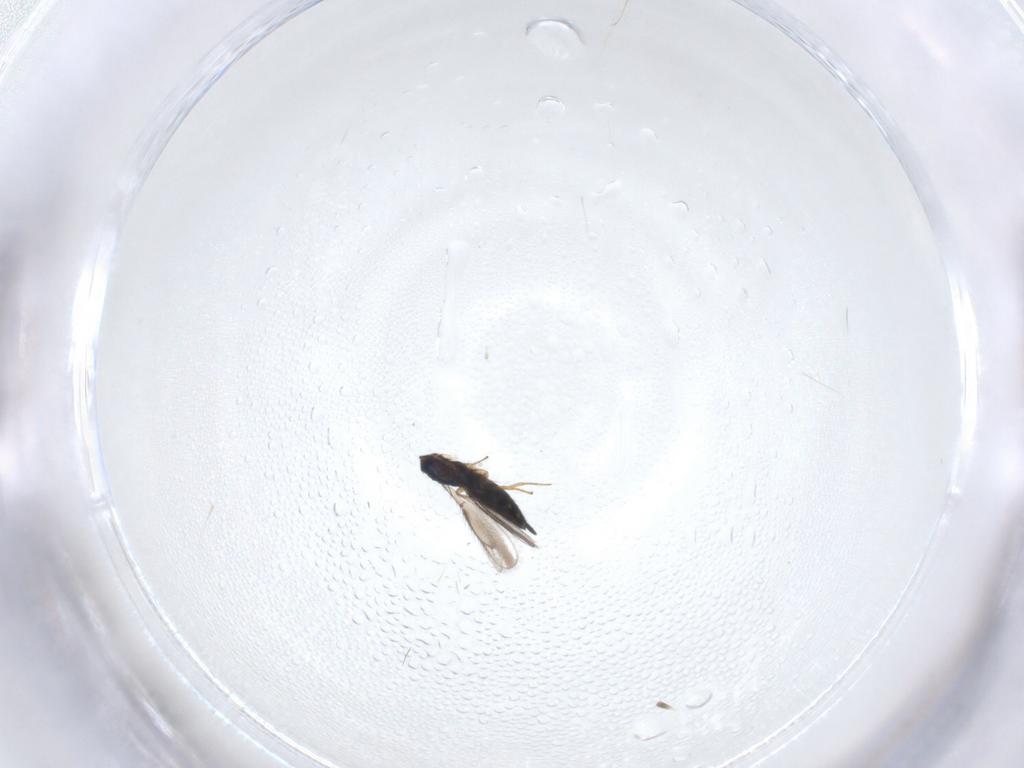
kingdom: Animalia
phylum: Arthropoda
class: Insecta
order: Hymenoptera
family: Pteromalidae
